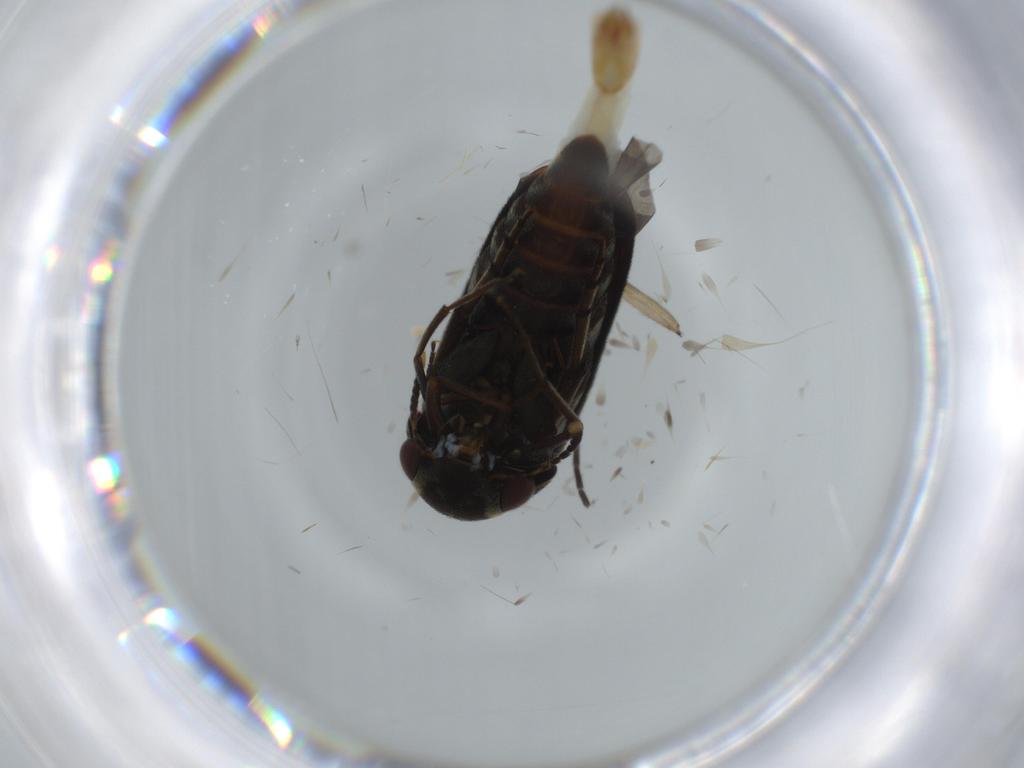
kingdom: Animalia
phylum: Arthropoda
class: Insecta
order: Coleoptera
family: Mordellidae
